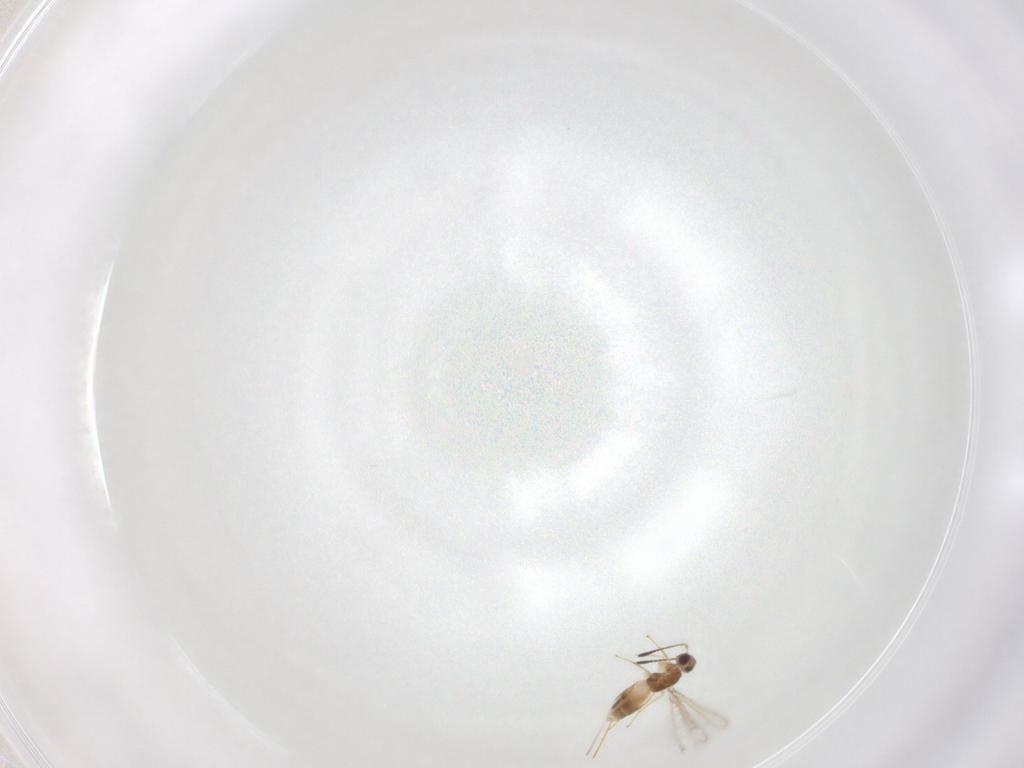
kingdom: Animalia
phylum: Arthropoda
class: Insecta
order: Hymenoptera
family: Mymaridae
